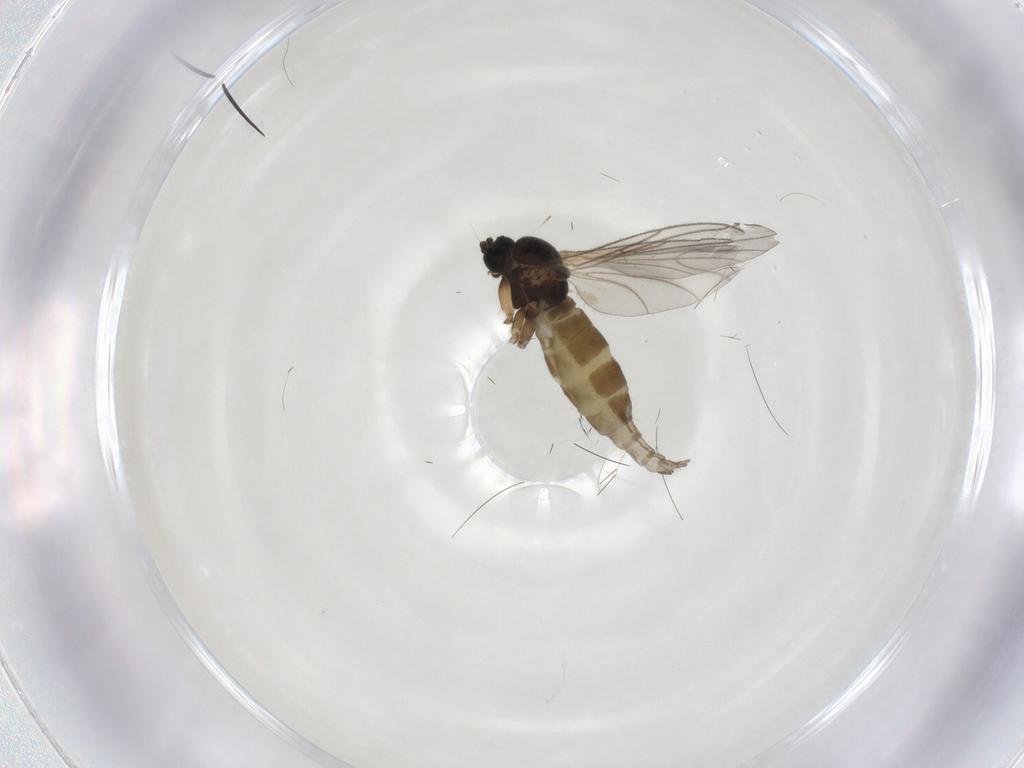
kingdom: Animalia
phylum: Arthropoda
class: Insecta
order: Diptera
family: Sciaridae
